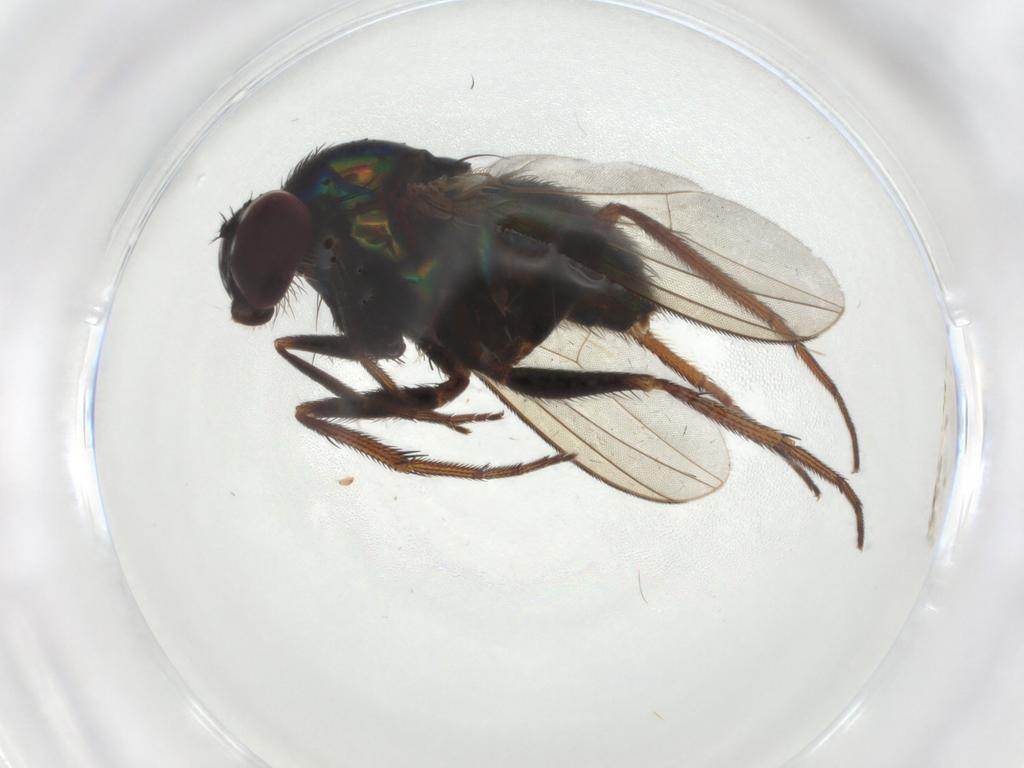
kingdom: Animalia
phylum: Arthropoda
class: Insecta
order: Diptera
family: Dolichopodidae
